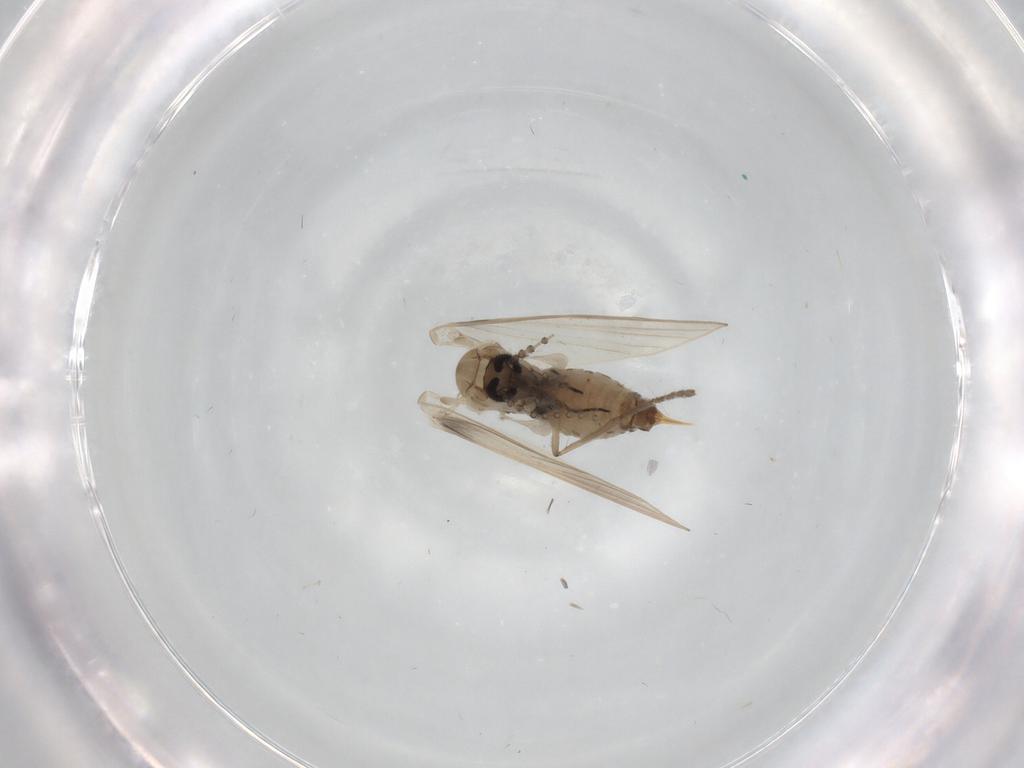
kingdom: Animalia
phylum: Arthropoda
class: Insecta
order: Diptera
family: Psychodidae
